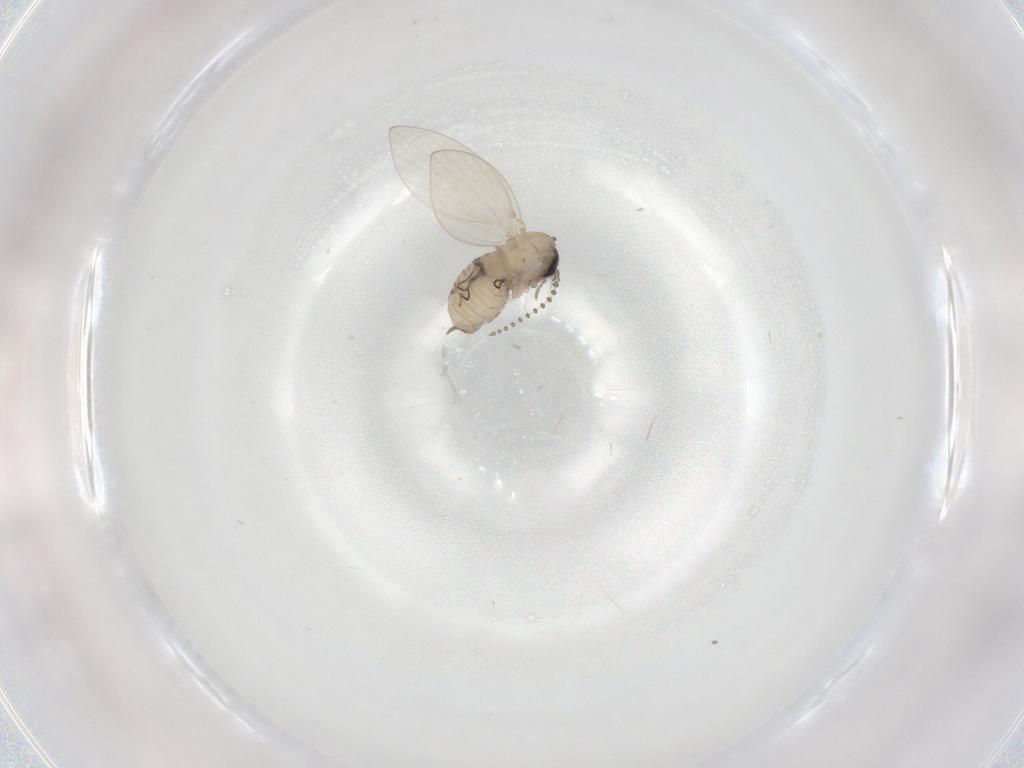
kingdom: Animalia
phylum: Arthropoda
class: Insecta
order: Diptera
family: Psychodidae
